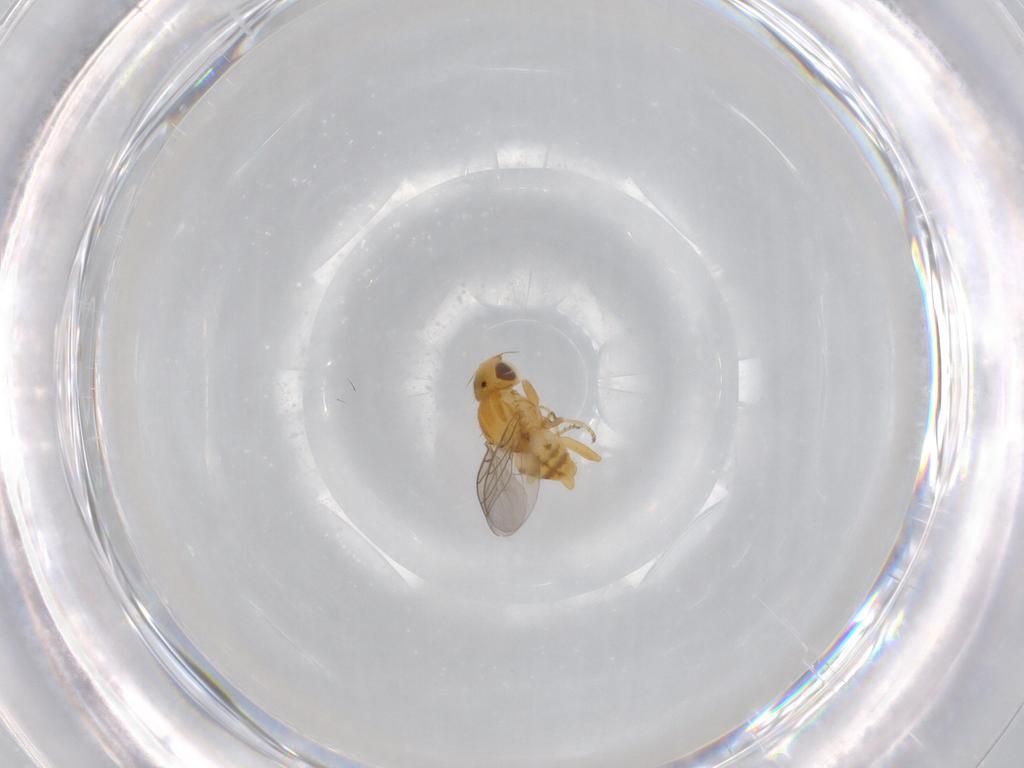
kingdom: Animalia
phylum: Arthropoda
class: Insecta
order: Diptera
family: Chloropidae
